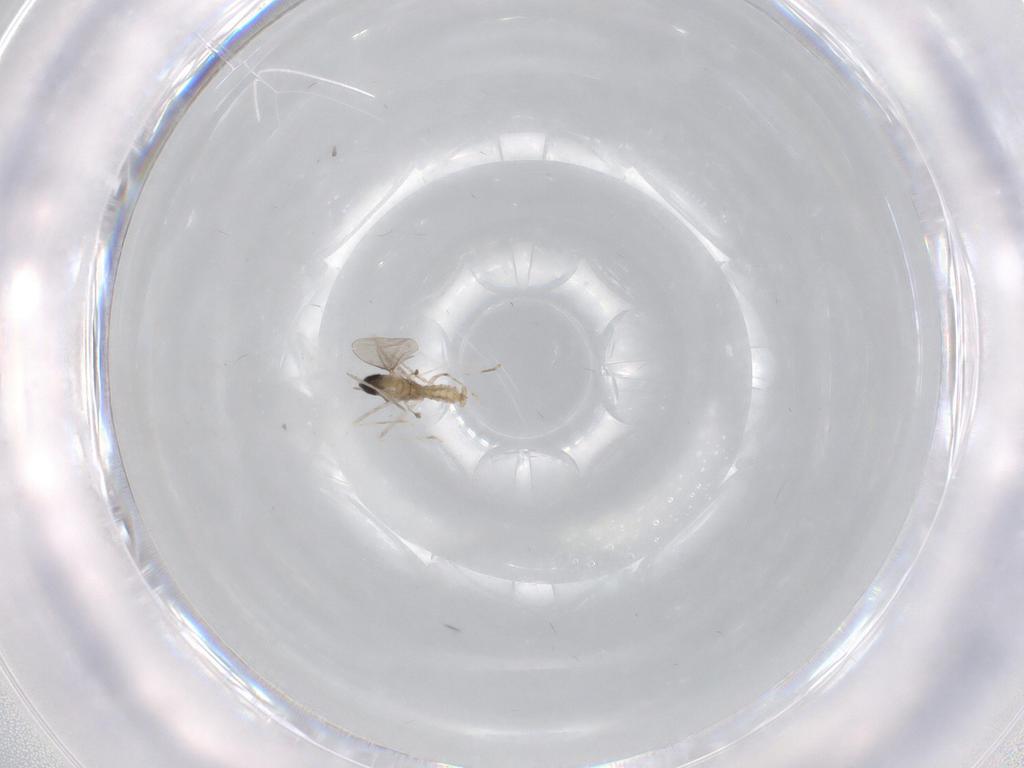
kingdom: Animalia
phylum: Arthropoda
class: Insecta
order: Diptera
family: Cecidomyiidae
